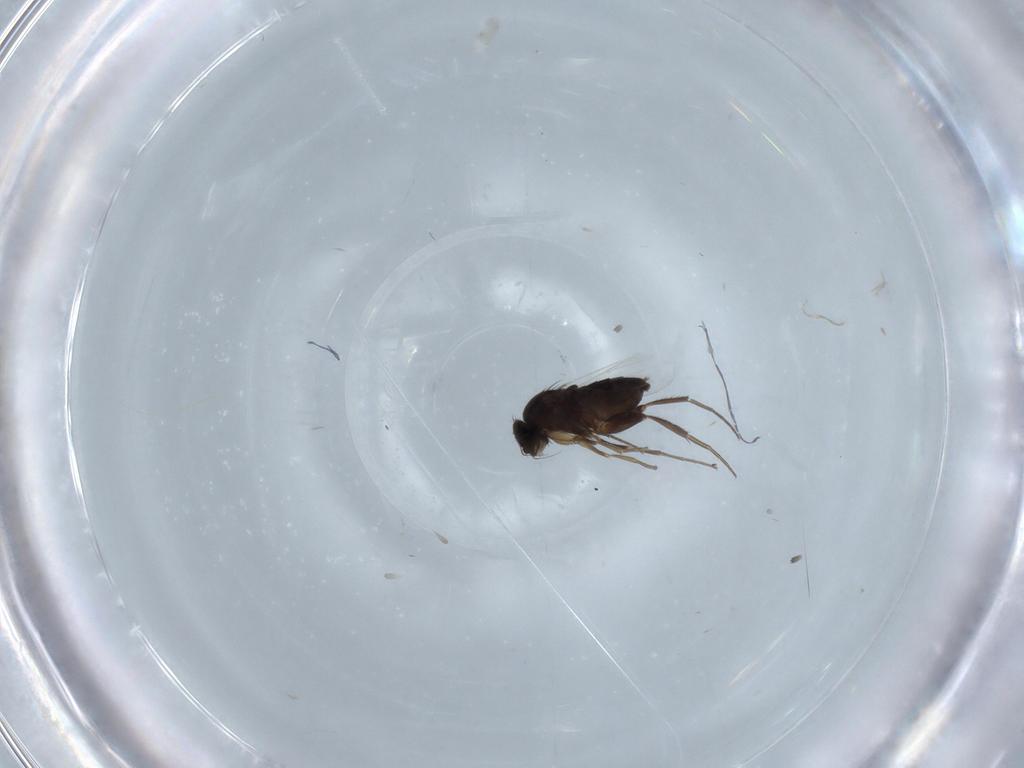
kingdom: Animalia
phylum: Arthropoda
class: Insecta
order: Diptera
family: Phoridae
